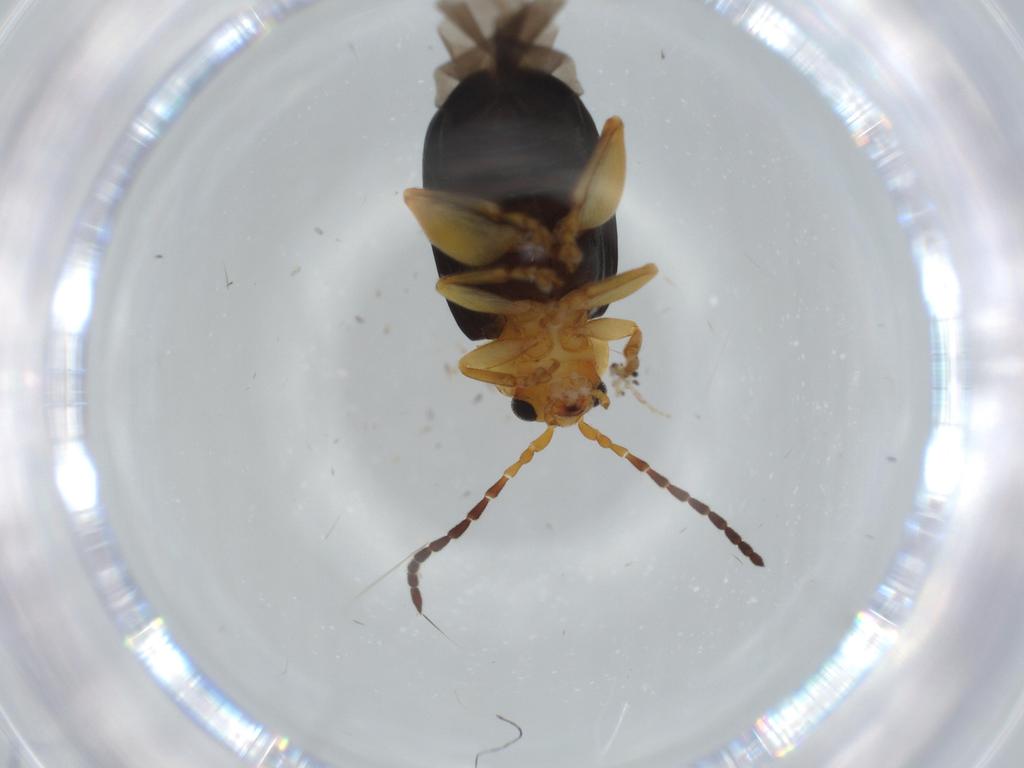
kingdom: Animalia
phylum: Arthropoda
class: Insecta
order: Coleoptera
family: Chrysomelidae
